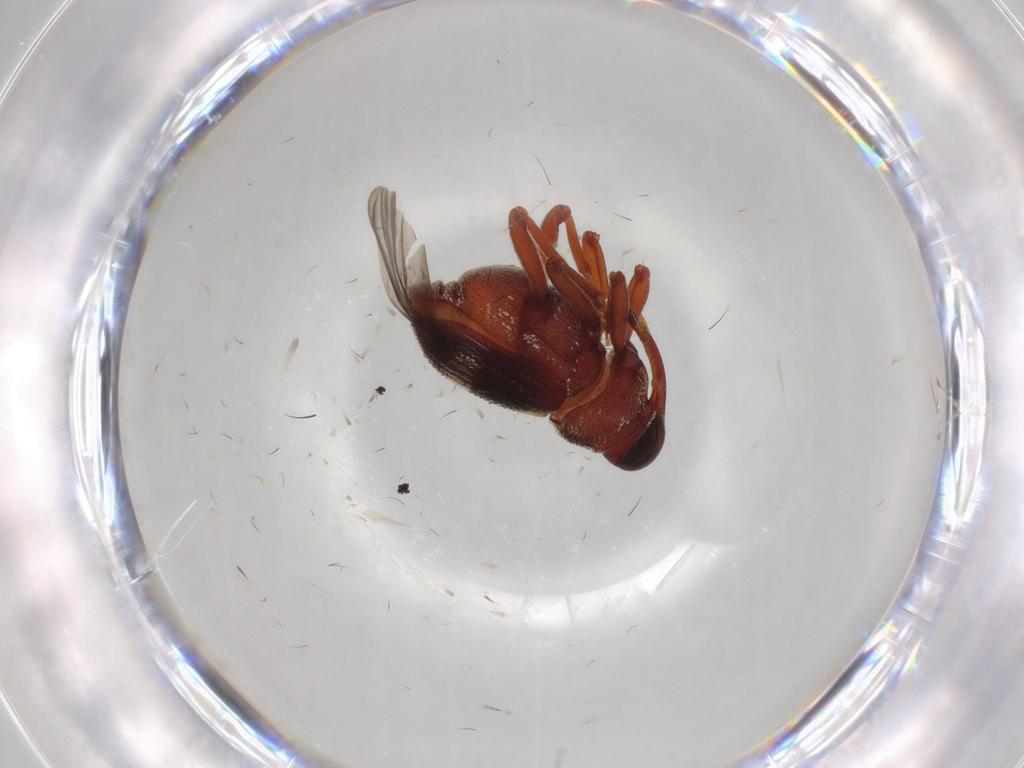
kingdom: Animalia
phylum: Arthropoda
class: Insecta
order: Coleoptera
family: Curculionidae
